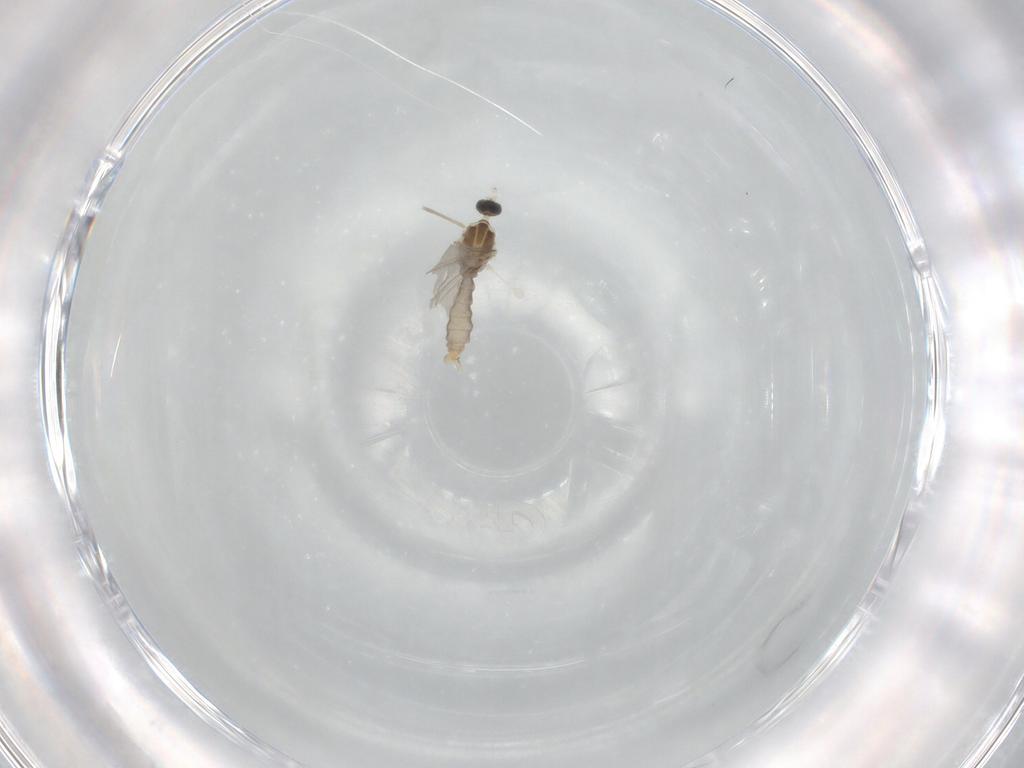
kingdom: Animalia
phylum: Arthropoda
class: Insecta
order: Diptera
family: Cecidomyiidae
